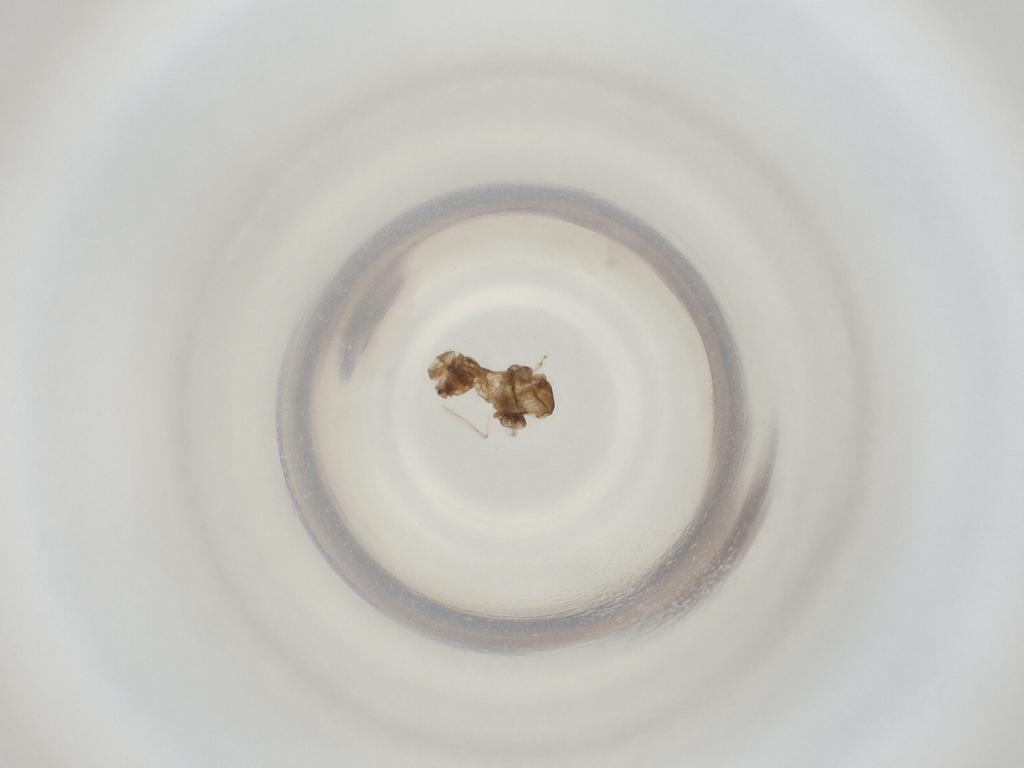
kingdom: Animalia
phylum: Arthropoda
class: Insecta
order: Diptera
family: Cecidomyiidae
